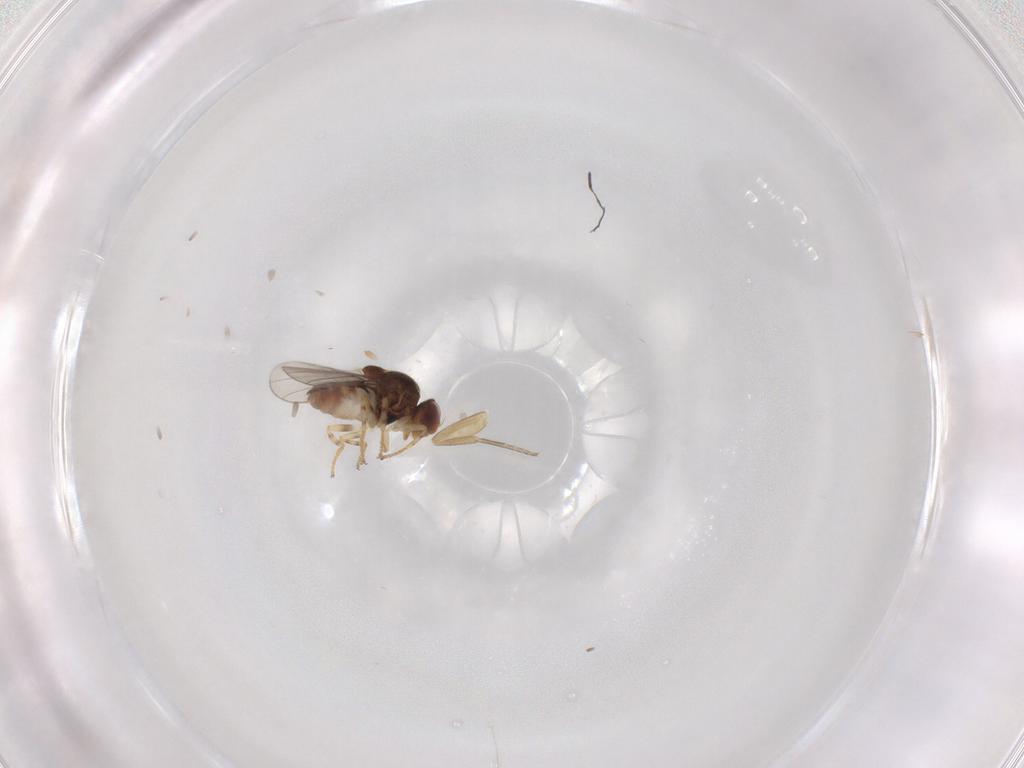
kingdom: Animalia
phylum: Arthropoda
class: Insecta
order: Diptera
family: Chloropidae
